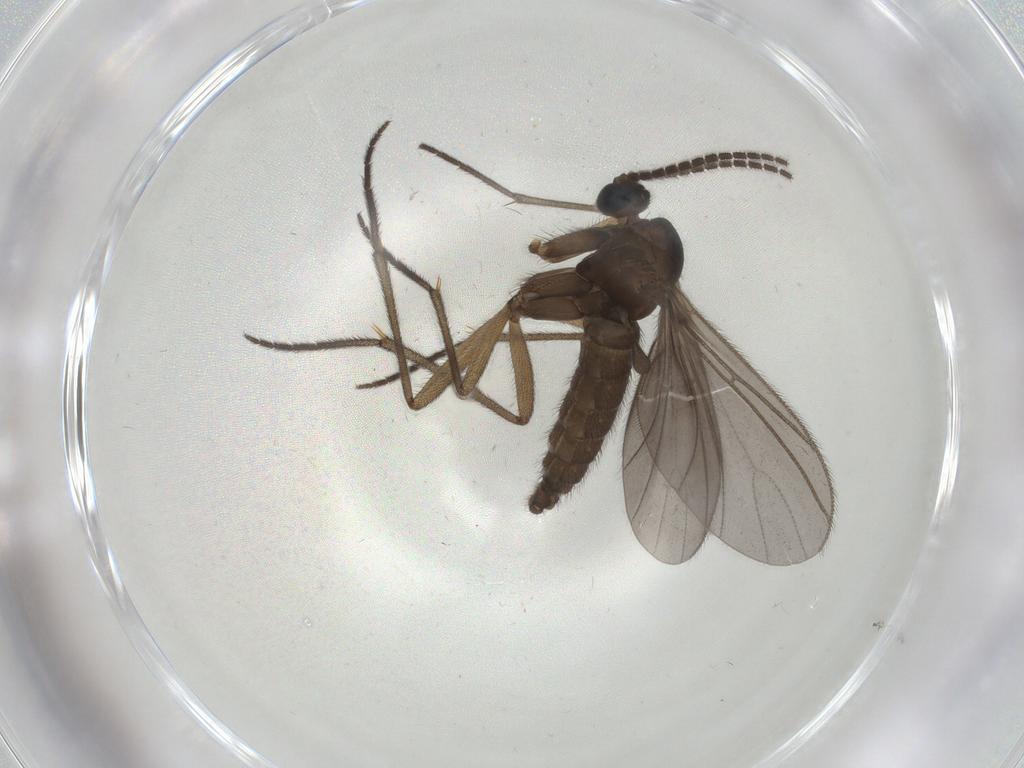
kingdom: Animalia
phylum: Arthropoda
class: Insecta
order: Diptera
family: Sciaridae
